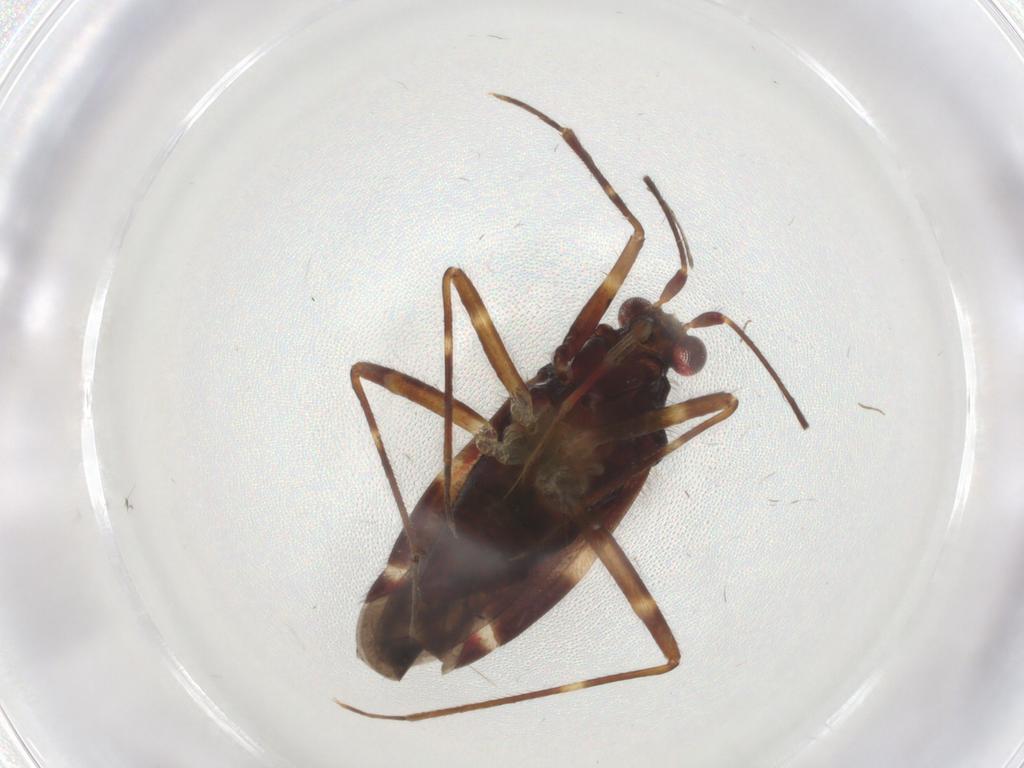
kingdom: Animalia
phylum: Arthropoda
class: Insecta
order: Hemiptera
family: Miridae
